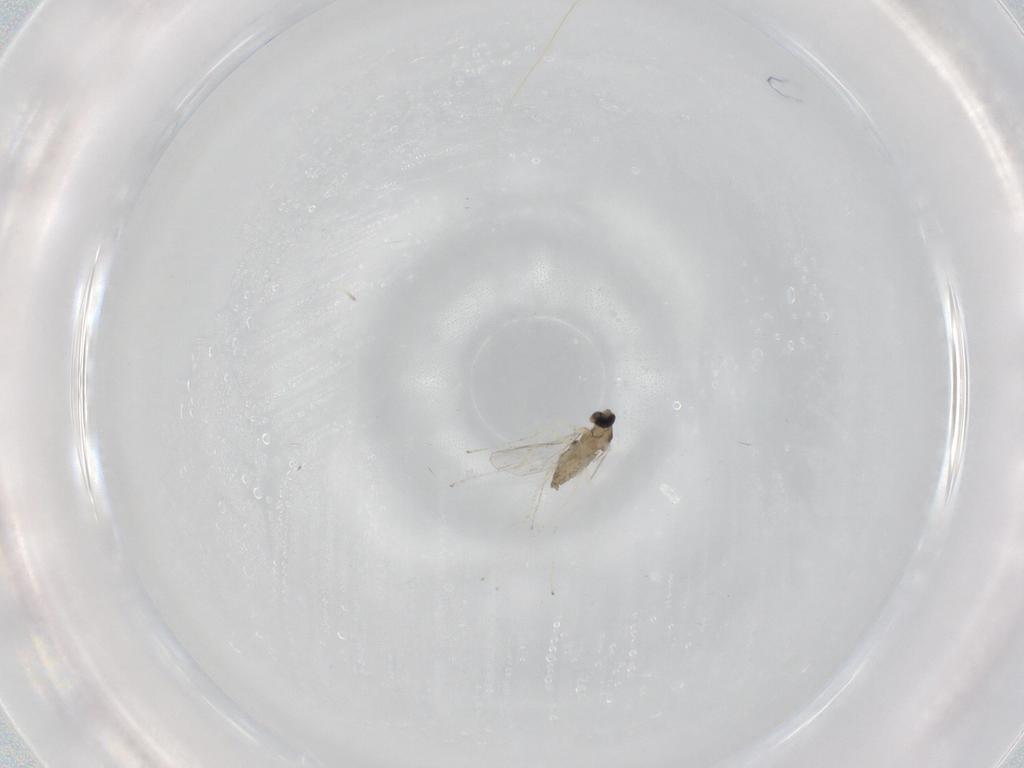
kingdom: Animalia
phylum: Arthropoda
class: Insecta
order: Diptera
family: Cecidomyiidae
